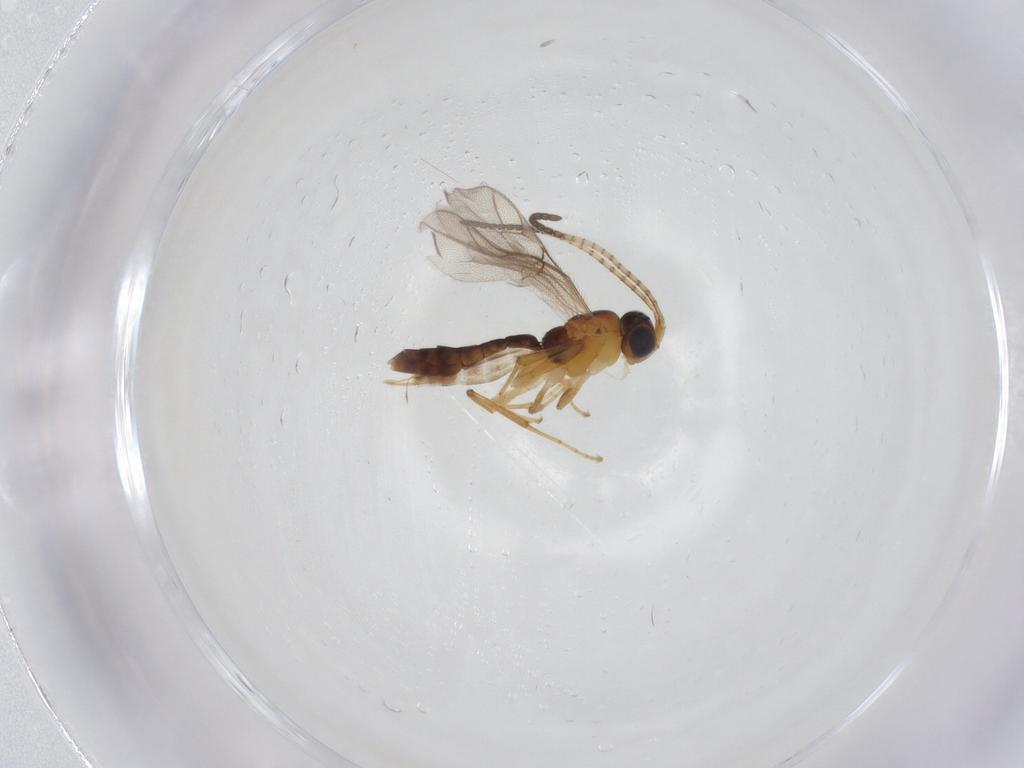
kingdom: Animalia
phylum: Arthropoda
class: Insecta
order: Hymenoptera
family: Ichneumonidae
